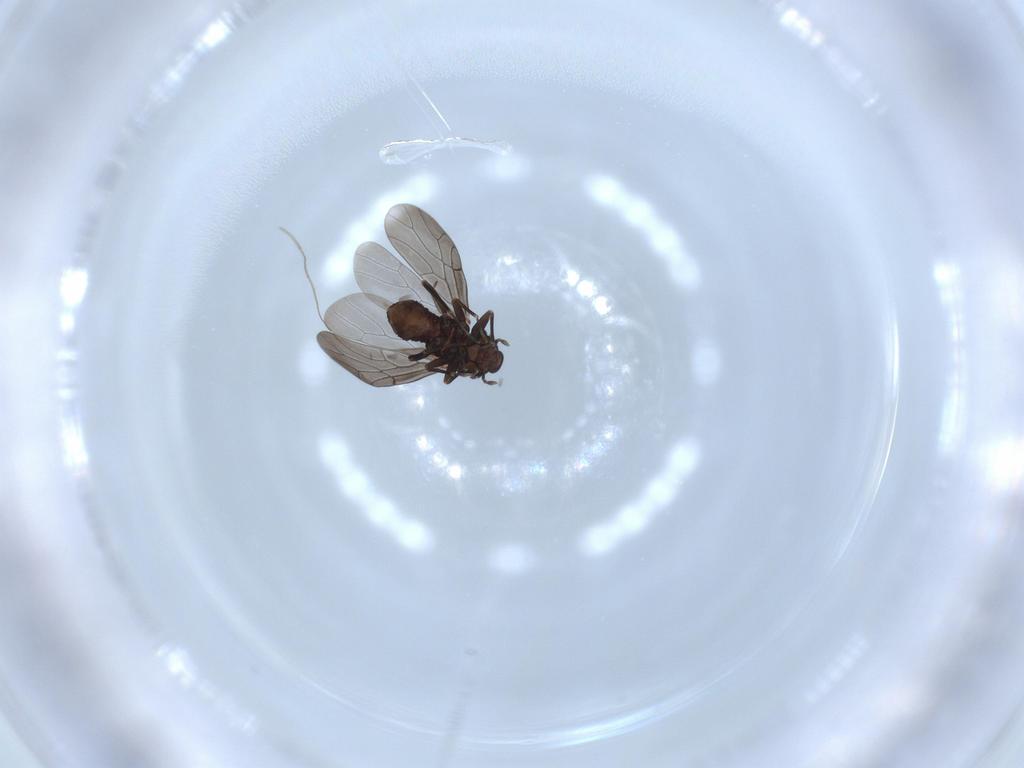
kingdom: Animalia
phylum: Arthropoda
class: Insecta
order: Psocodea
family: Lepidopsocidae
